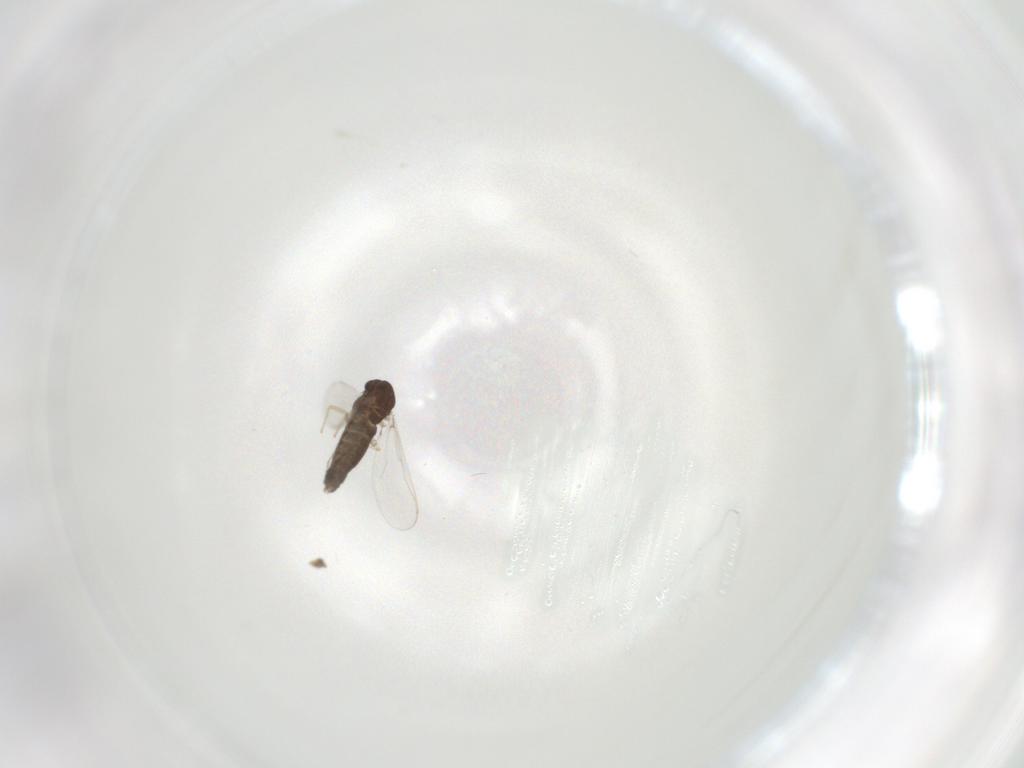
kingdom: Animalia
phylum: Arthropoda
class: Insecta
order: Diptera
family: Chironomidae
